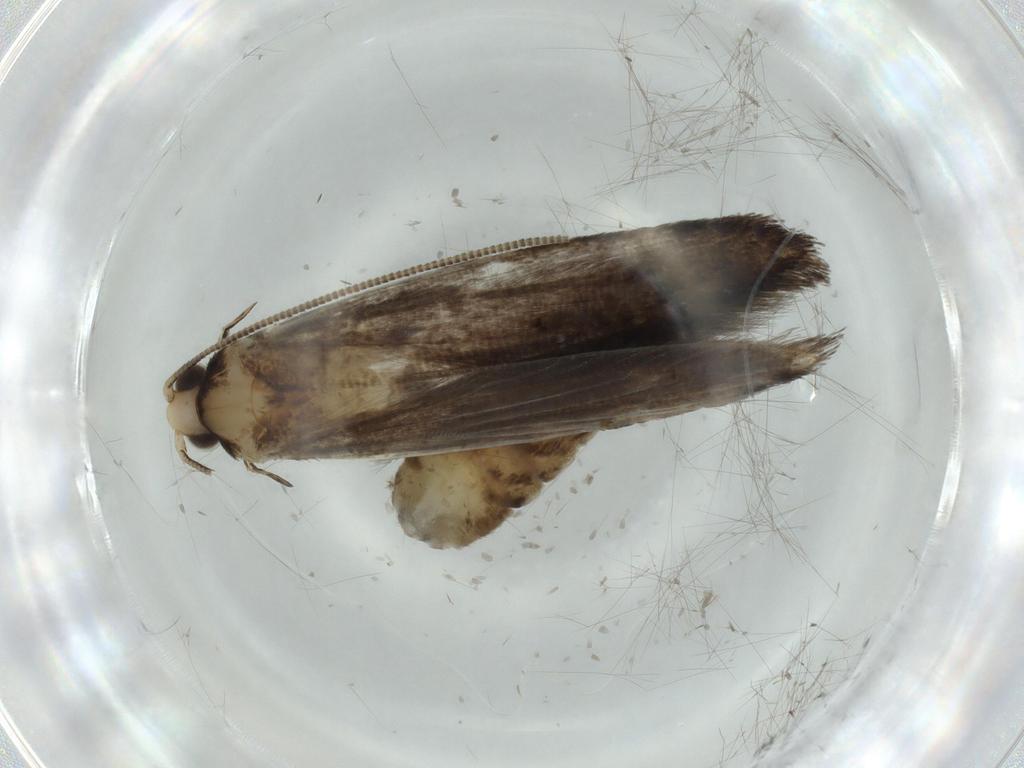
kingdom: Animalia
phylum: Arthropoda
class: Insecta
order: Lepidoptera
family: Tineidae
